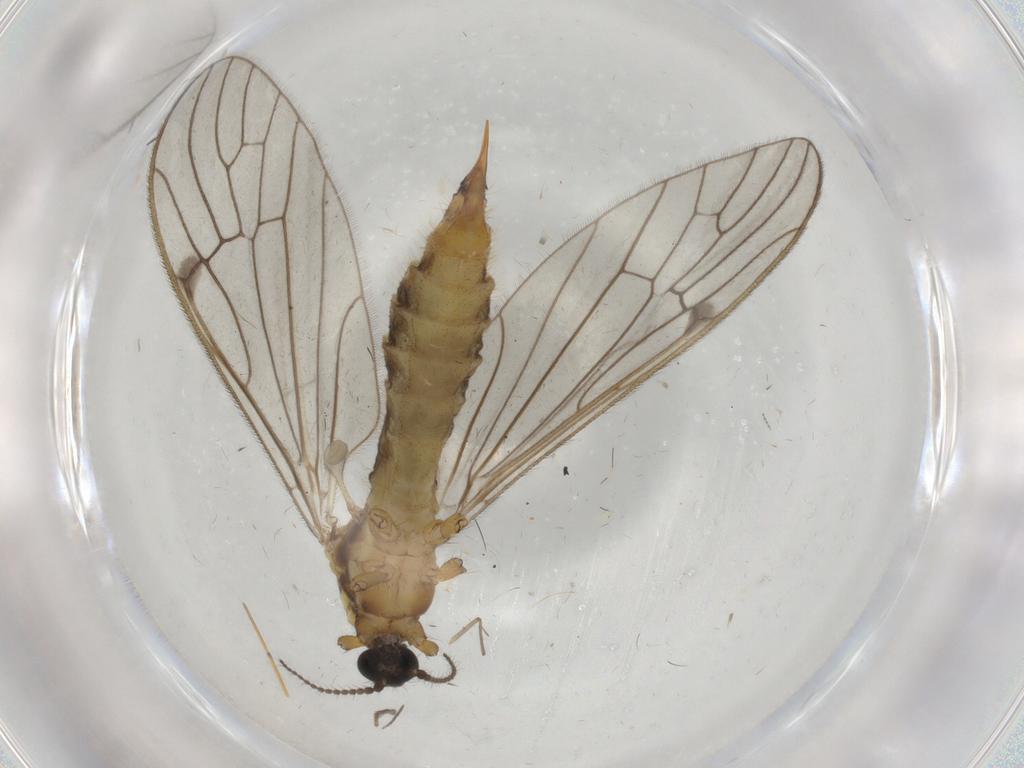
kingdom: Animalia
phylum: Arthropoda
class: Insecta
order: Diptera
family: Limoniidae
